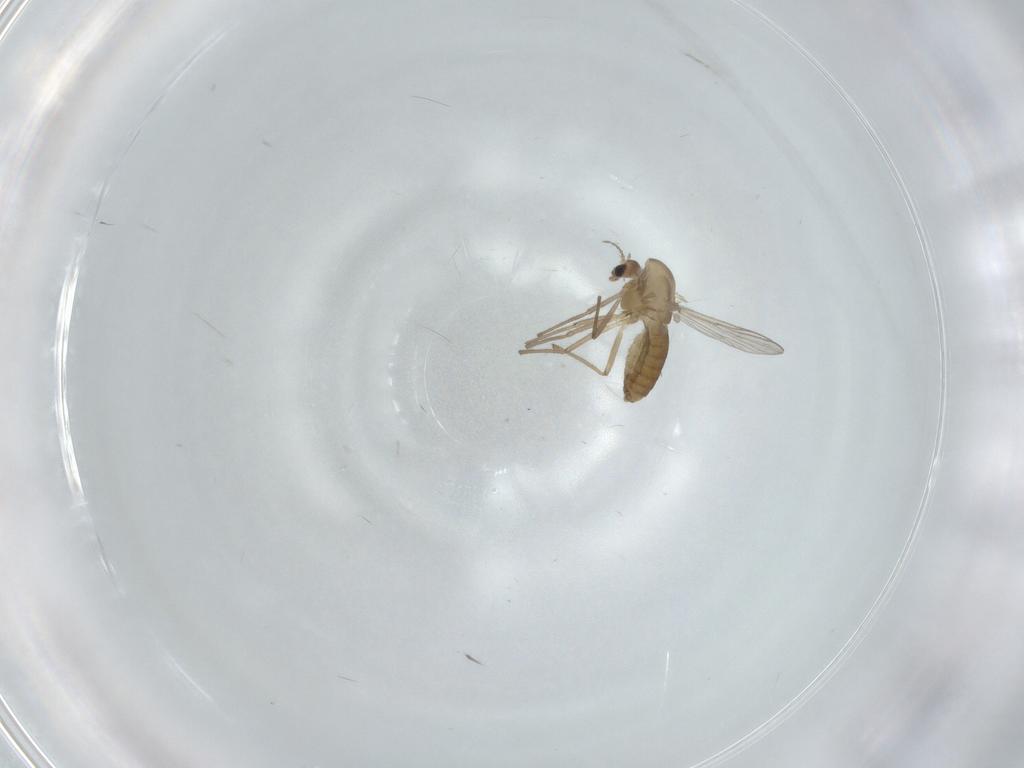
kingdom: Animalia
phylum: Arthropoda
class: Insecta
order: Diptera
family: Chironomidae
